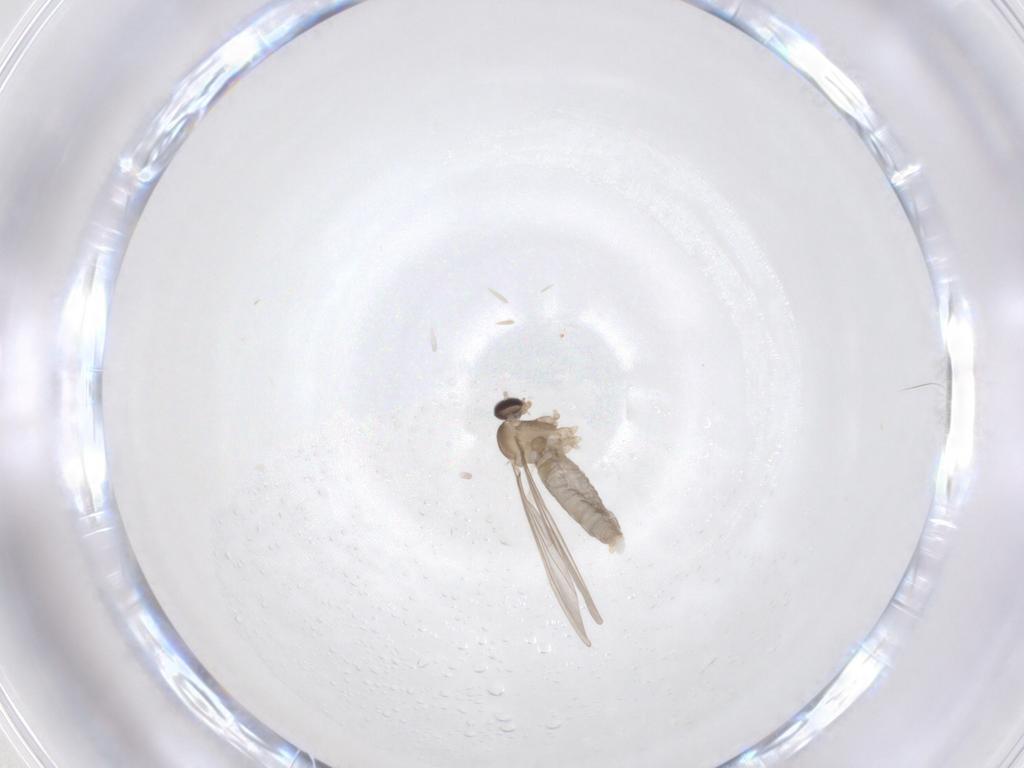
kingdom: Animalia
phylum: Arthropoda
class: Insecta
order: Diptera
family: Cecidomyiidae
